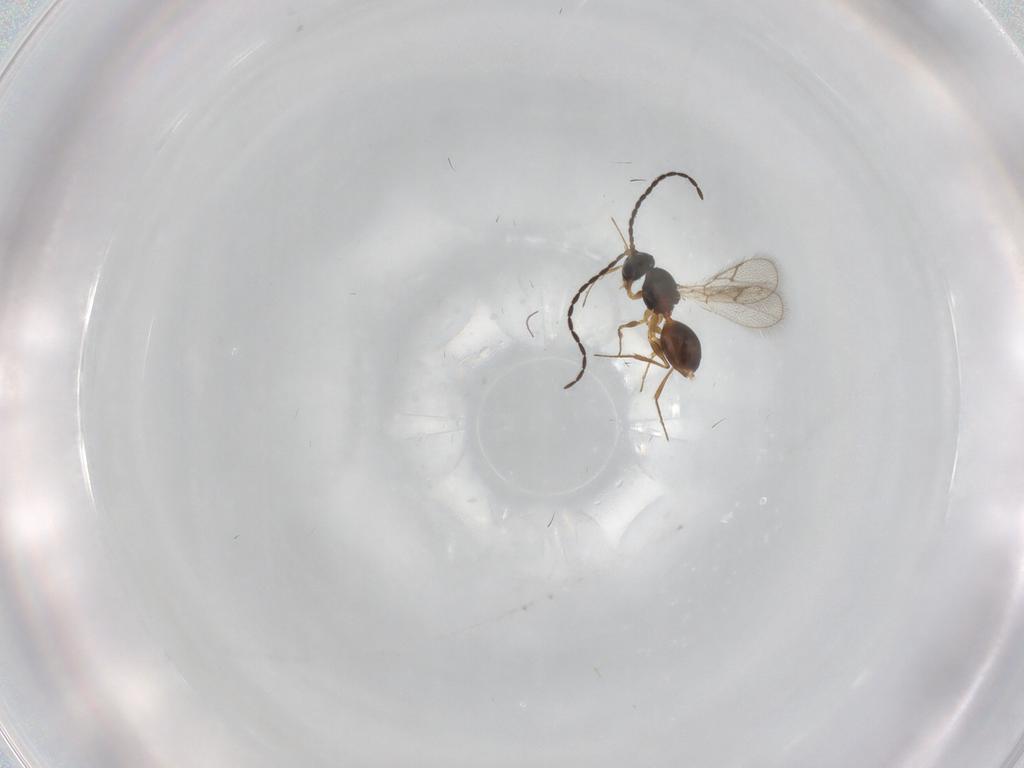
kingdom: Animalia
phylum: Arthropoda
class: Insecta
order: Hymenoptera
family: Figitidae
